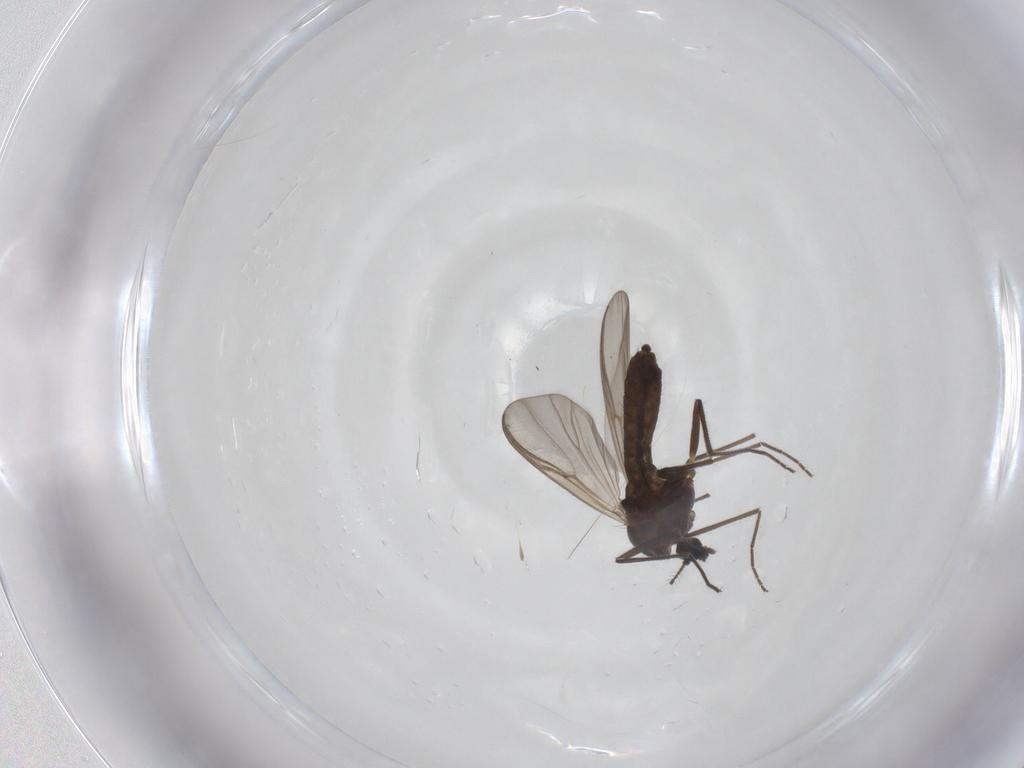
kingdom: Animalia
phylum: Arthropoda
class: Insecta
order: Diptera
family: Chironomidae
